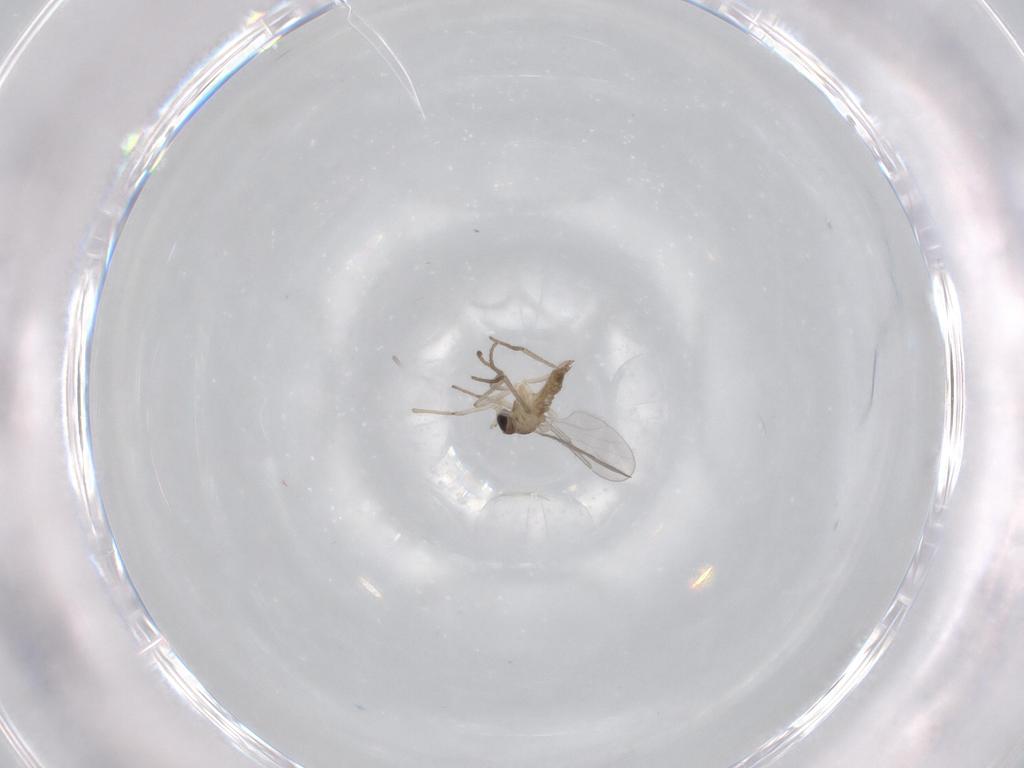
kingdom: Animalia
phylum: Arthropoda
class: Insecta
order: Diptera
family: Cecidomyiidae
